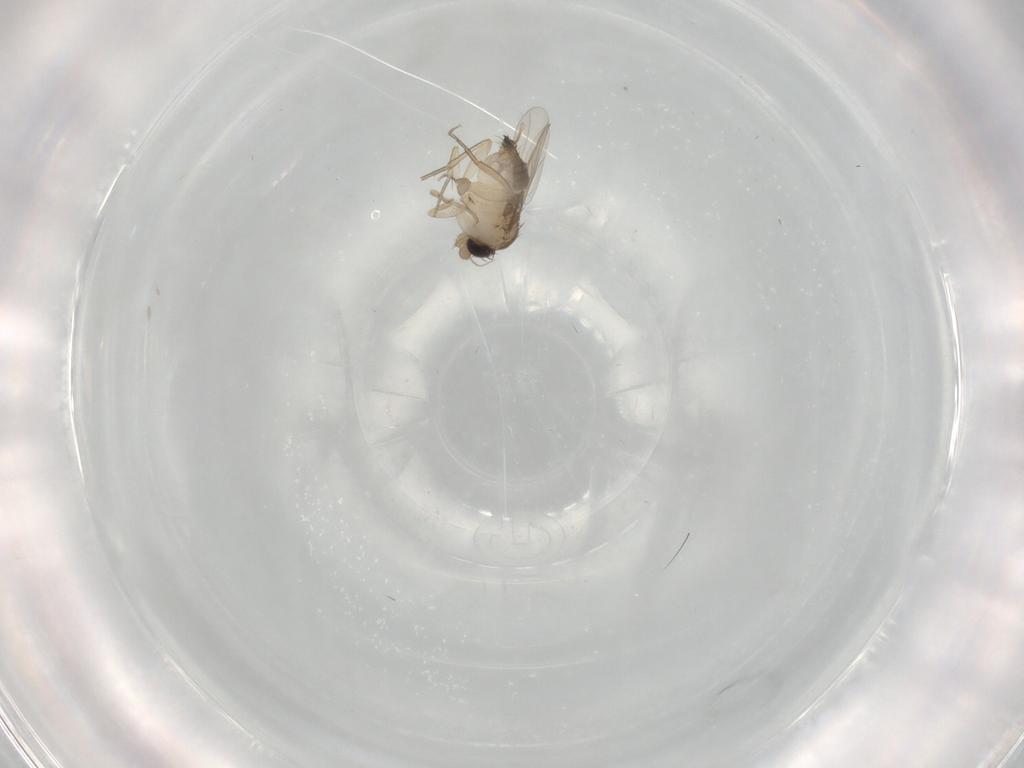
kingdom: Animalia
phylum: Arthropoda
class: Insecta
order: Diptera
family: Phoridae
